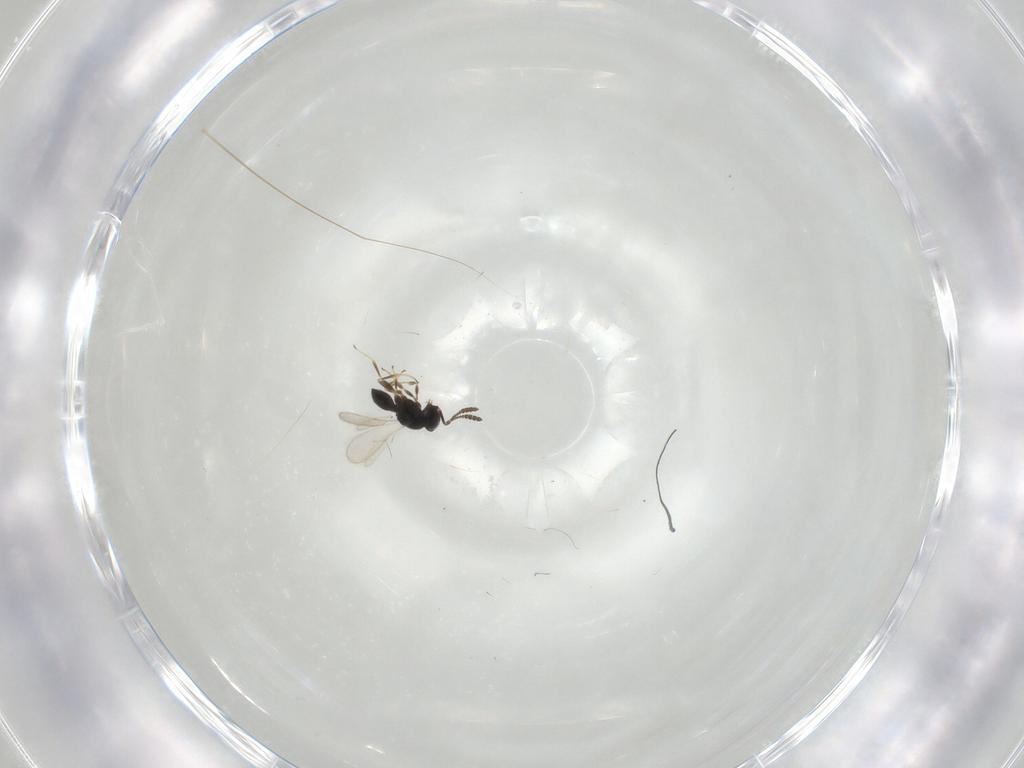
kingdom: Animalia
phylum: Arthropoda
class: Insecta
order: Hymenoptera
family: Scelionidae
